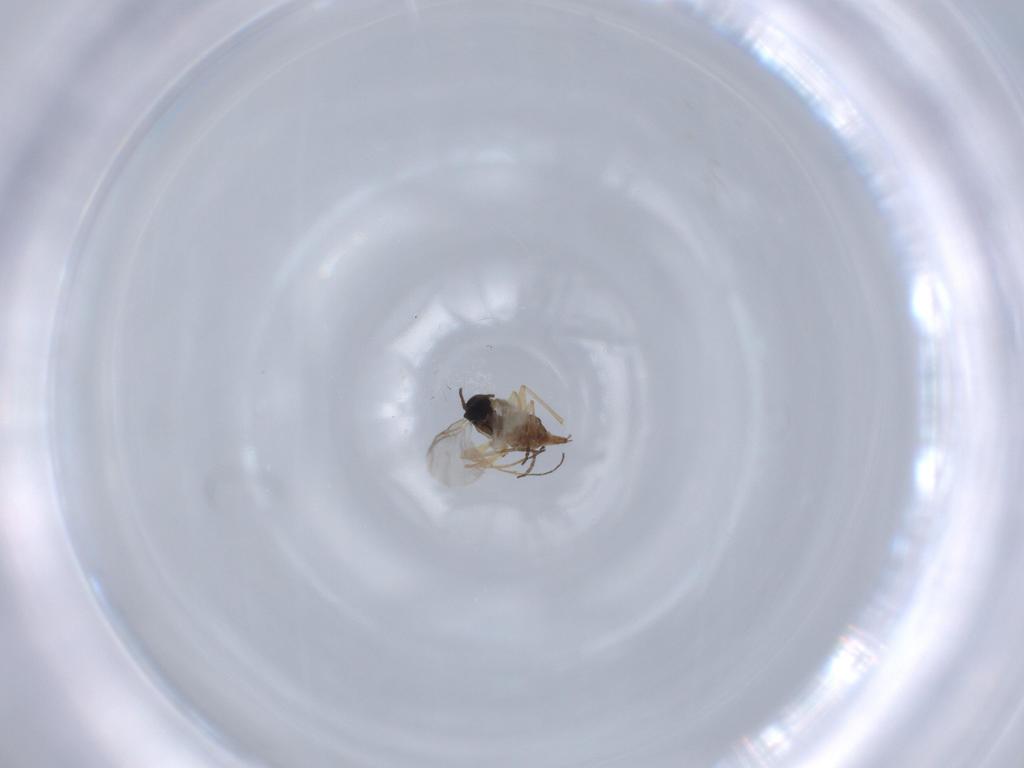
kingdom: Animalia
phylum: Arthropoda
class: Insecta
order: Diptera
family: Sciaridae
